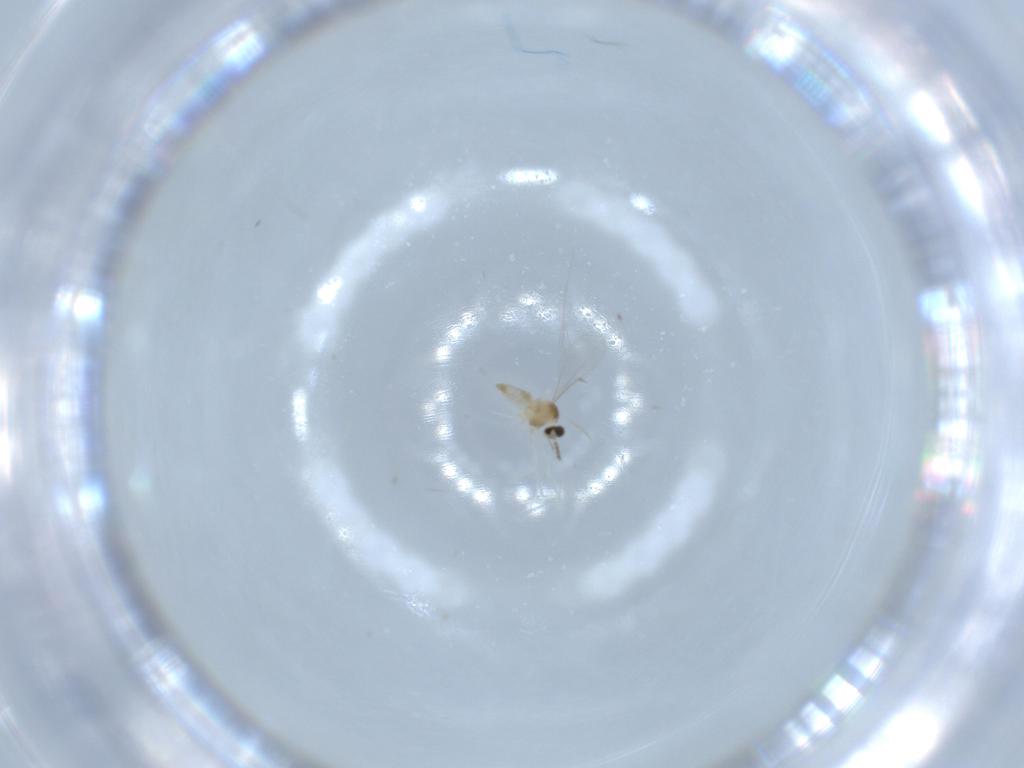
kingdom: Animalia
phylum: Arthropoda
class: Insecta
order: Diptera
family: Cecidomyiidae
